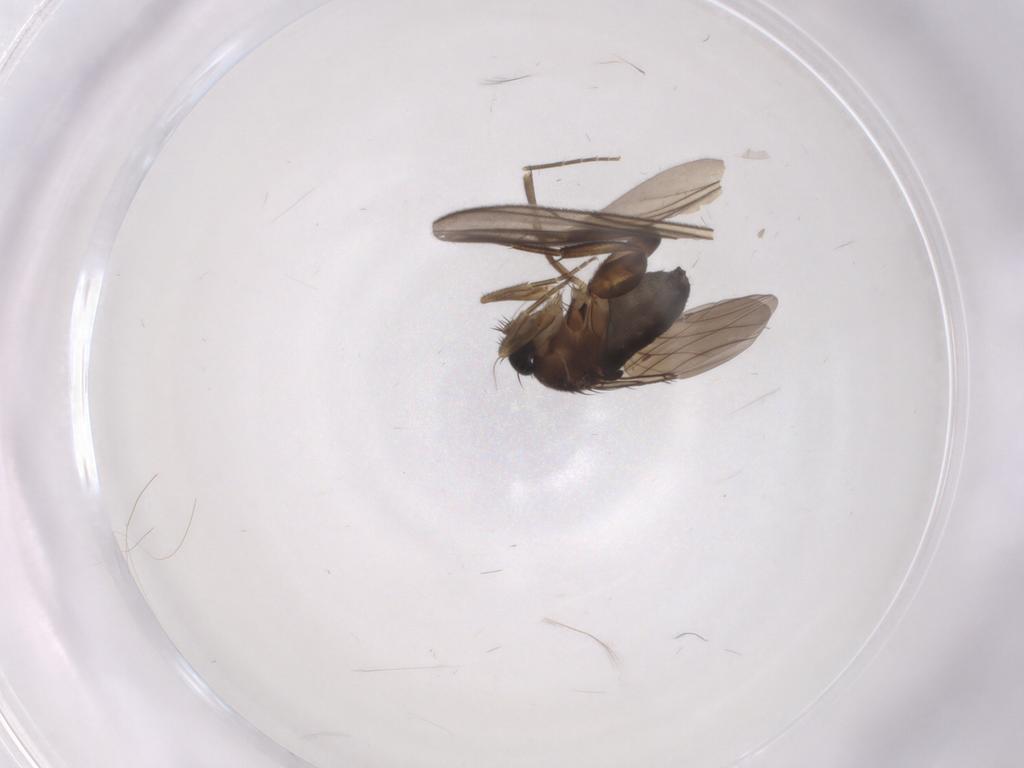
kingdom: Animalia
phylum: Arthropoda
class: Insecta
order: Diptera
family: Phoridae
